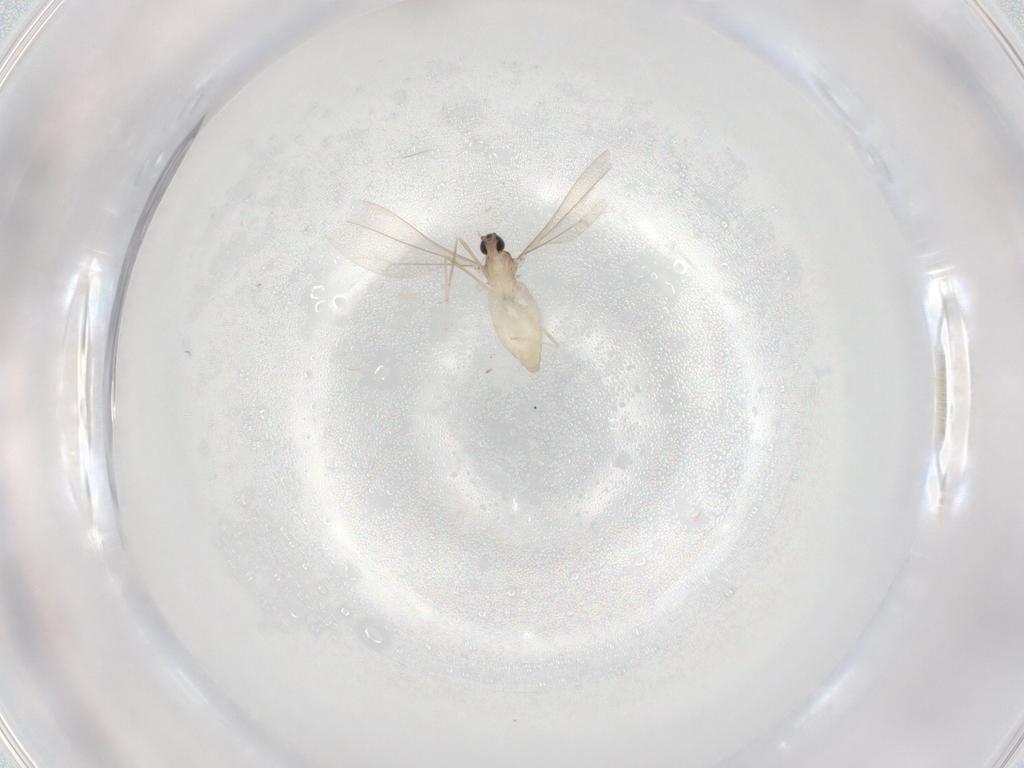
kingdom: Animalia
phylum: Arthropoda
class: Insecta
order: Diptera
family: Cecidomyiidae
